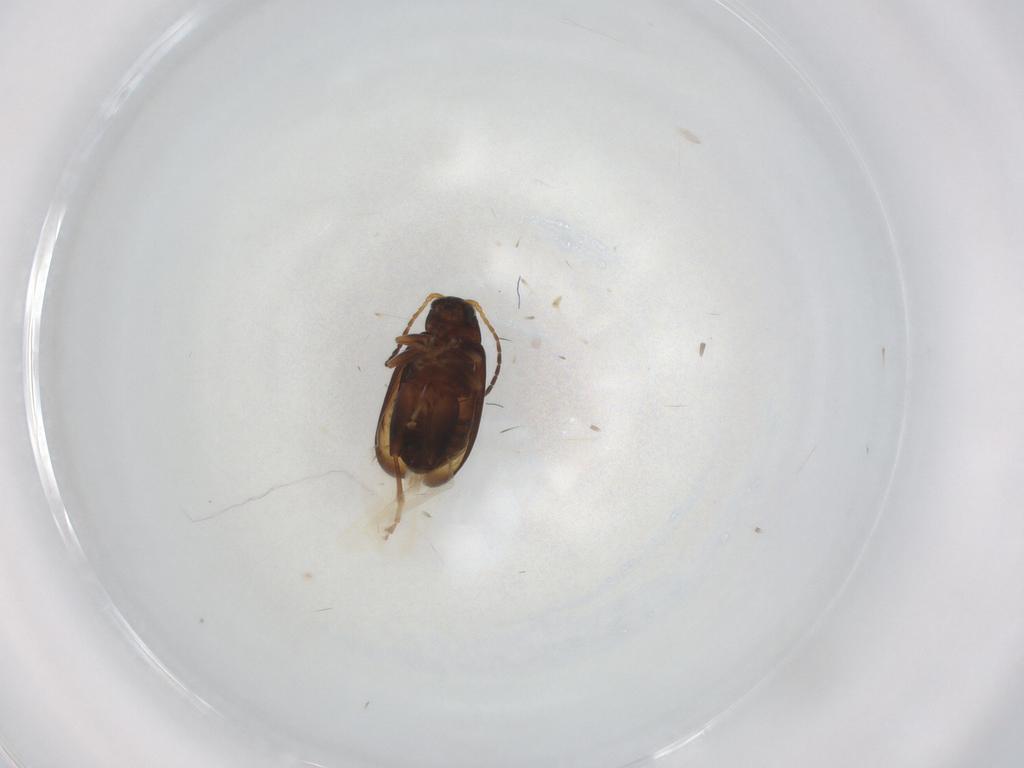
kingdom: Animalia
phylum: Arthropoda
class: Insecta
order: Coleoptera
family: Chrysomelidae
